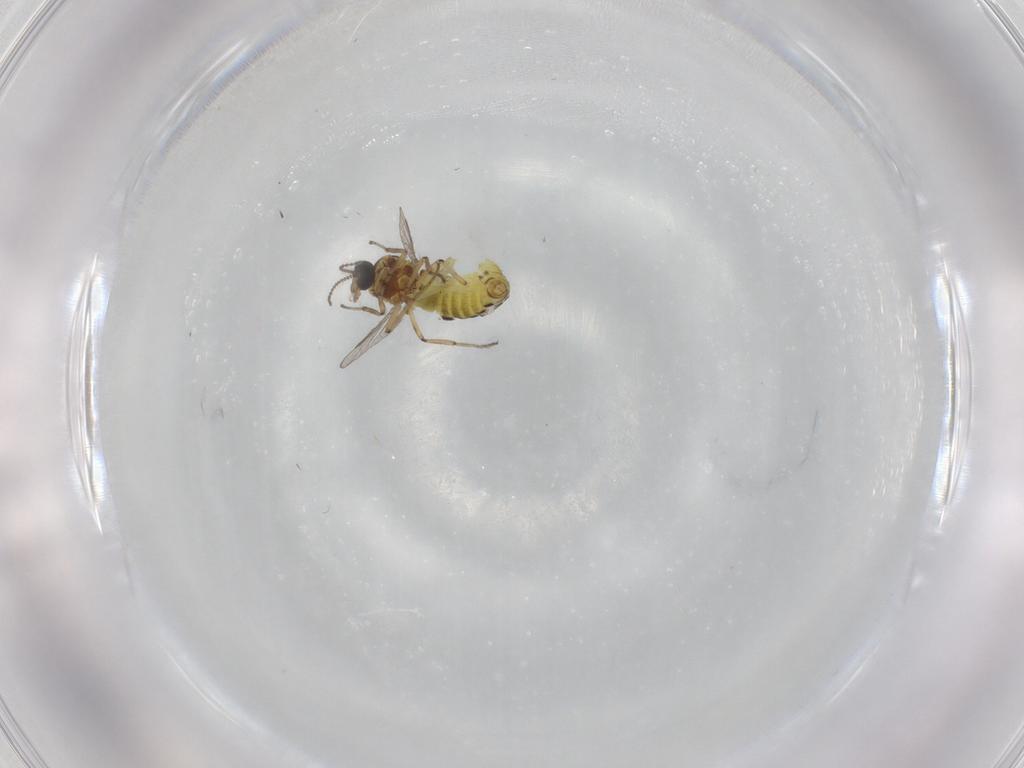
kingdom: Animalia
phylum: Arthropoda
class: Insecta
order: Diptera
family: Ceratopogonidae
